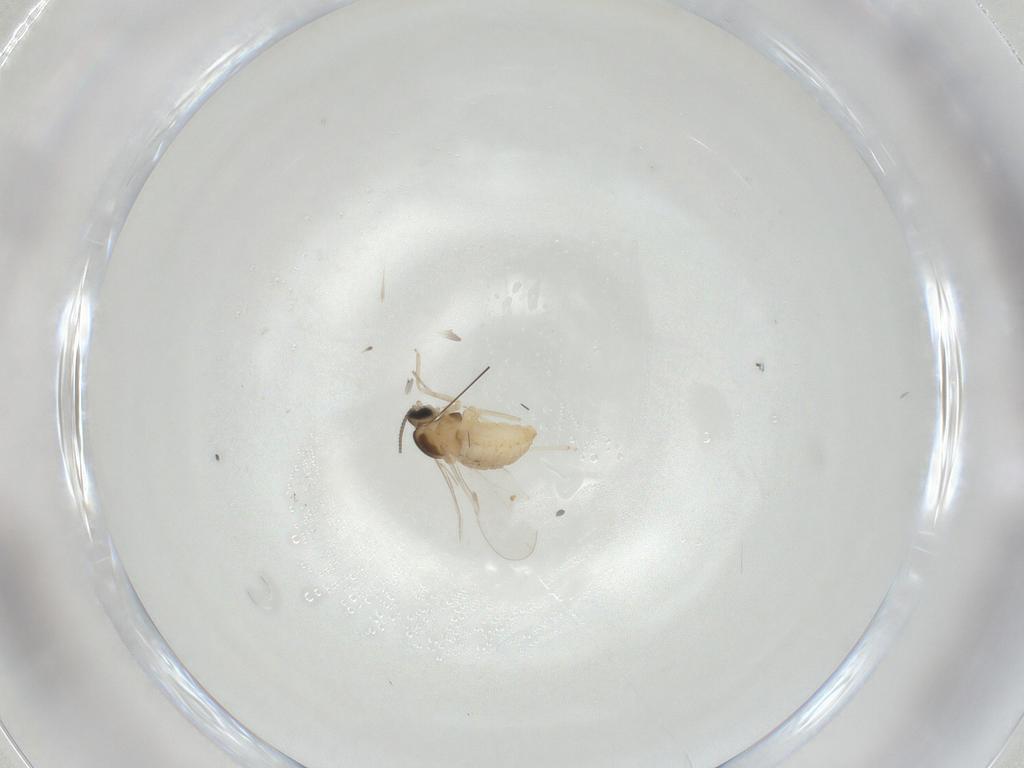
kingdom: Animalia
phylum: Arthropoda
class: Insecta
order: Diptera
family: Cecidomyiidae
